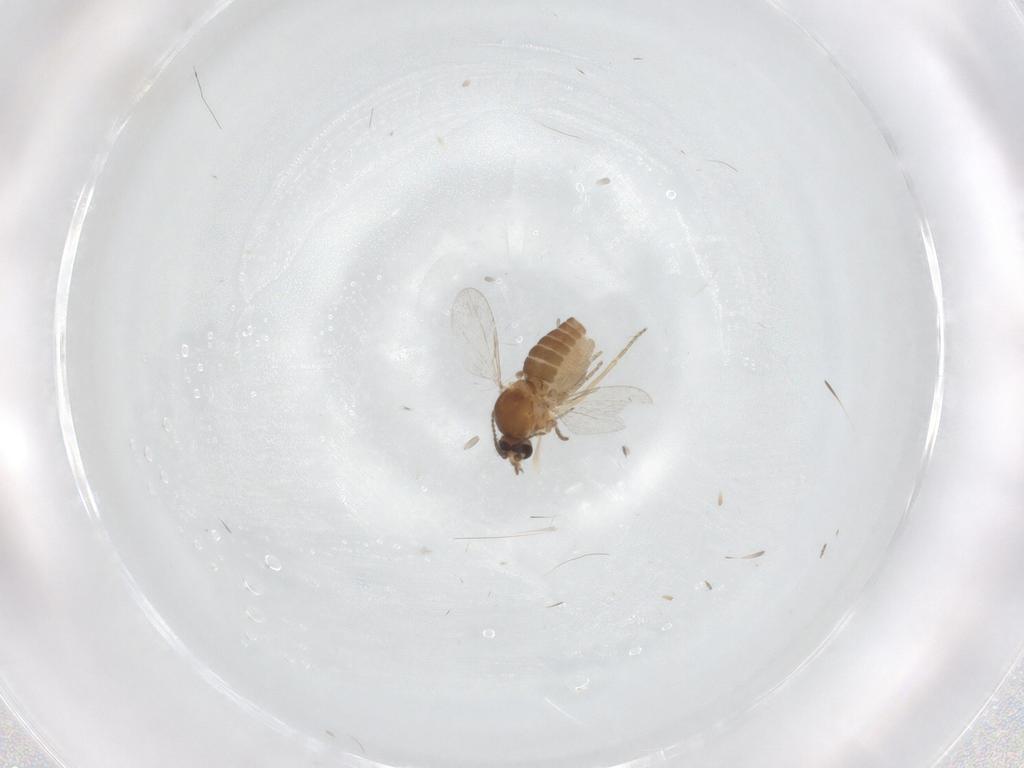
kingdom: Animalia
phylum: Arthropoda
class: Insecta
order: Diptera
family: Ceratopogonidae
